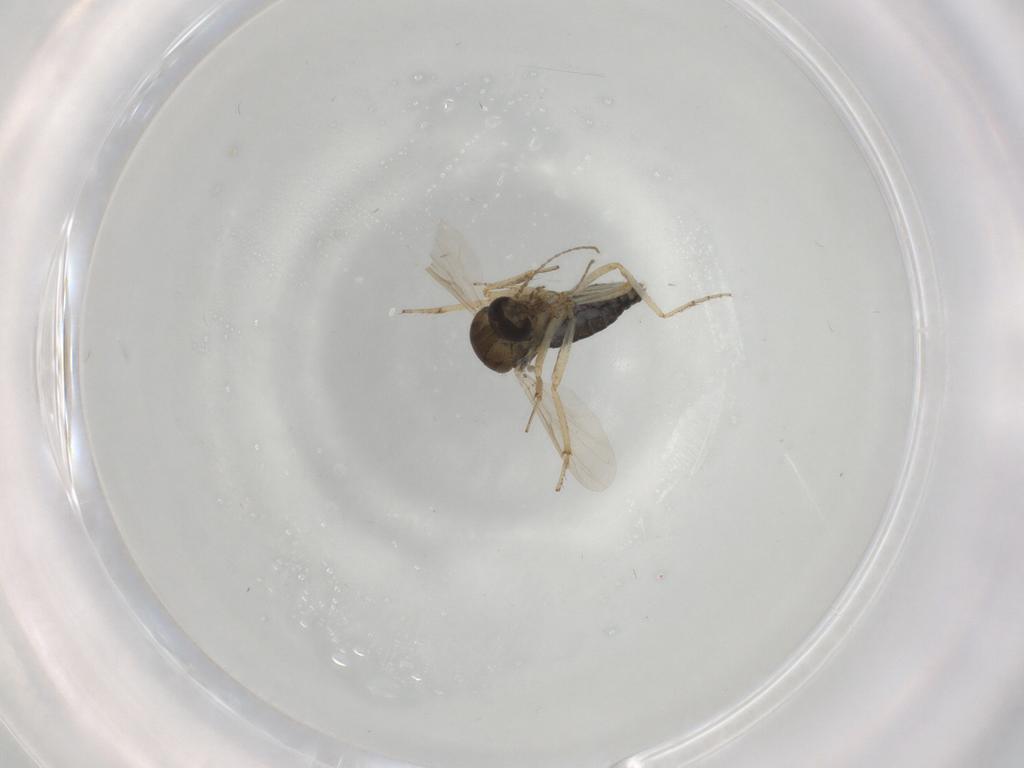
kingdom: Animalia
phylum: Arthropoda
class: Insecta
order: Diptera
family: Ceratopogonidae
